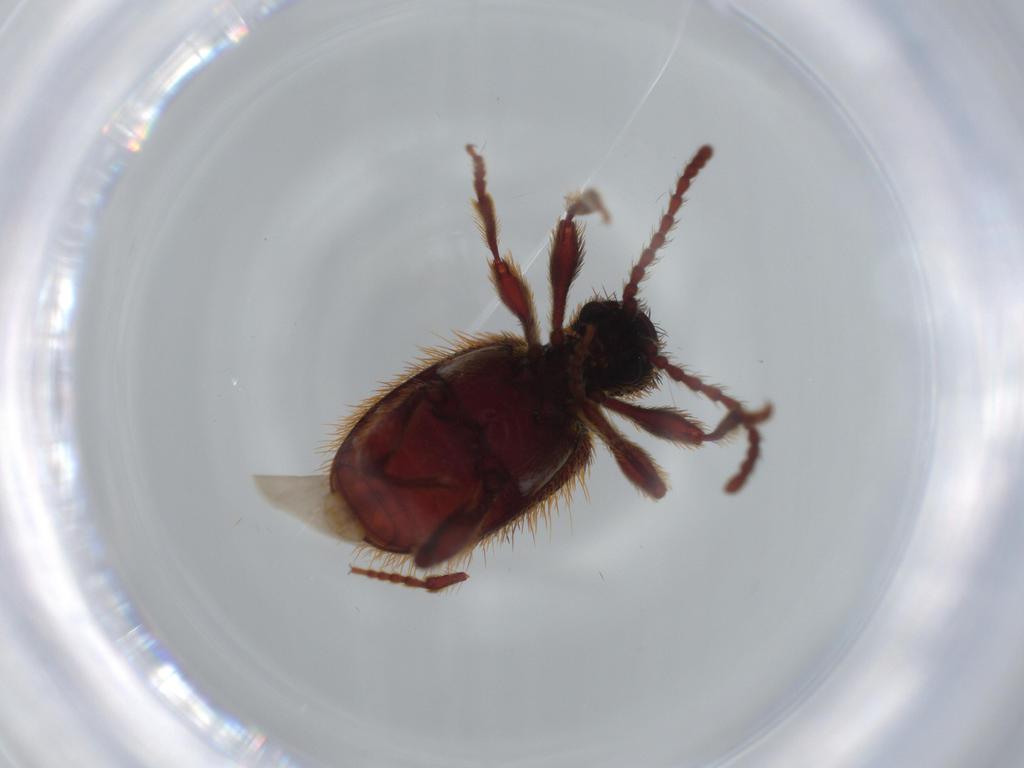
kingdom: Animalia
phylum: Arthropoda
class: Insecta
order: Coleoptera
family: Ptinidae
